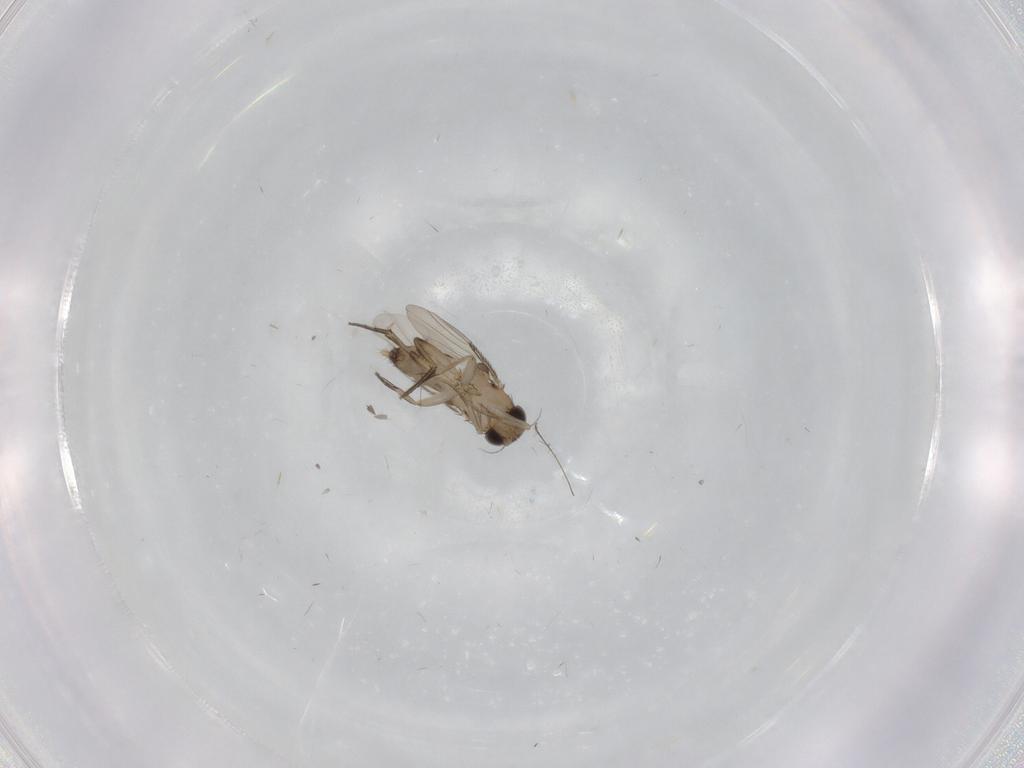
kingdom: Animalia
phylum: Arthropoda
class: Insecta
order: Diptera
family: Phoridae
